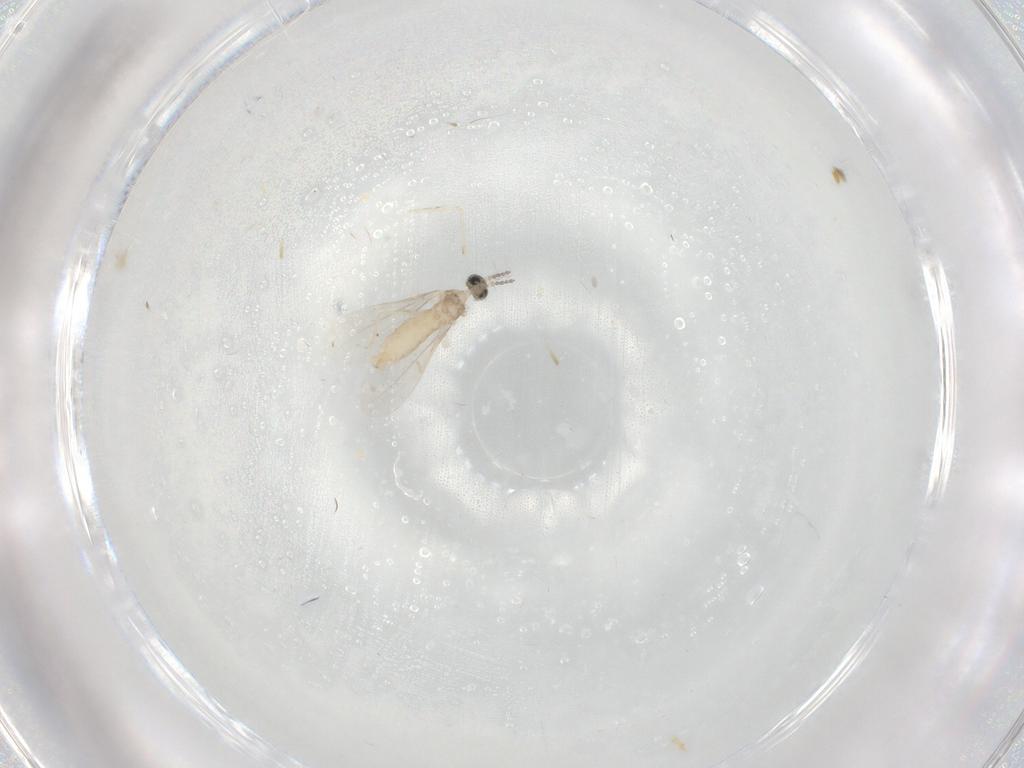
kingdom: Animalia
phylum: Arthropoda
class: Insecta
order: Diptera
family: Cecidomyiidae
